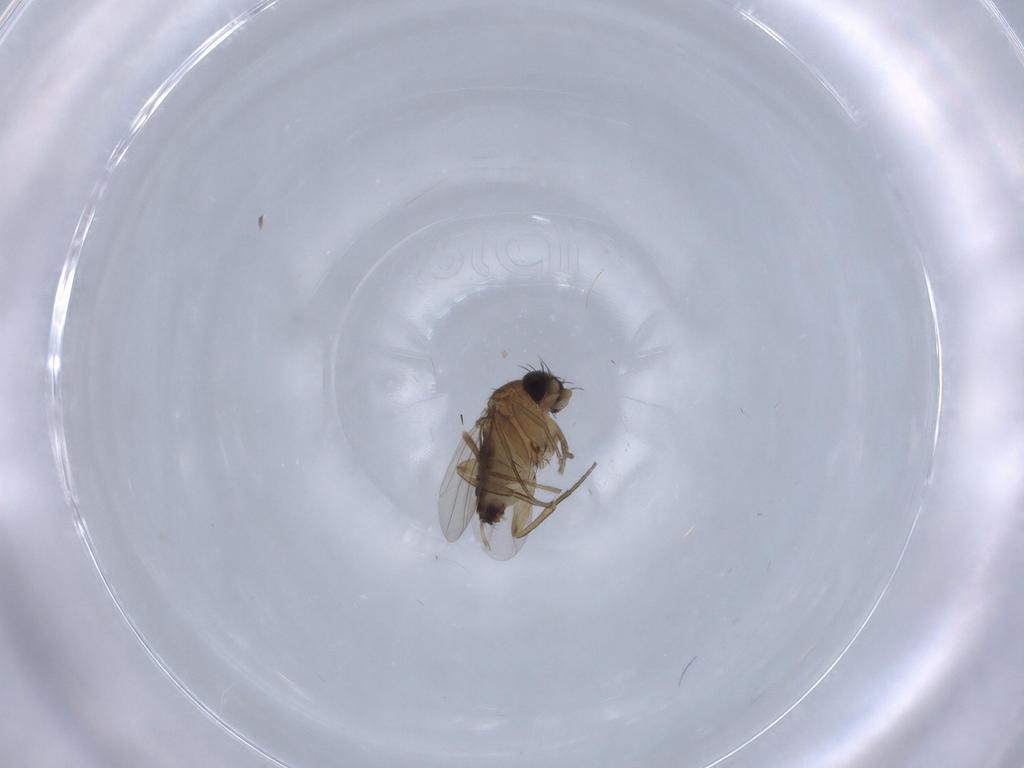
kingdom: Animalia
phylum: Arthropoda
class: Insecta
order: Diptera
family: Phoridae
